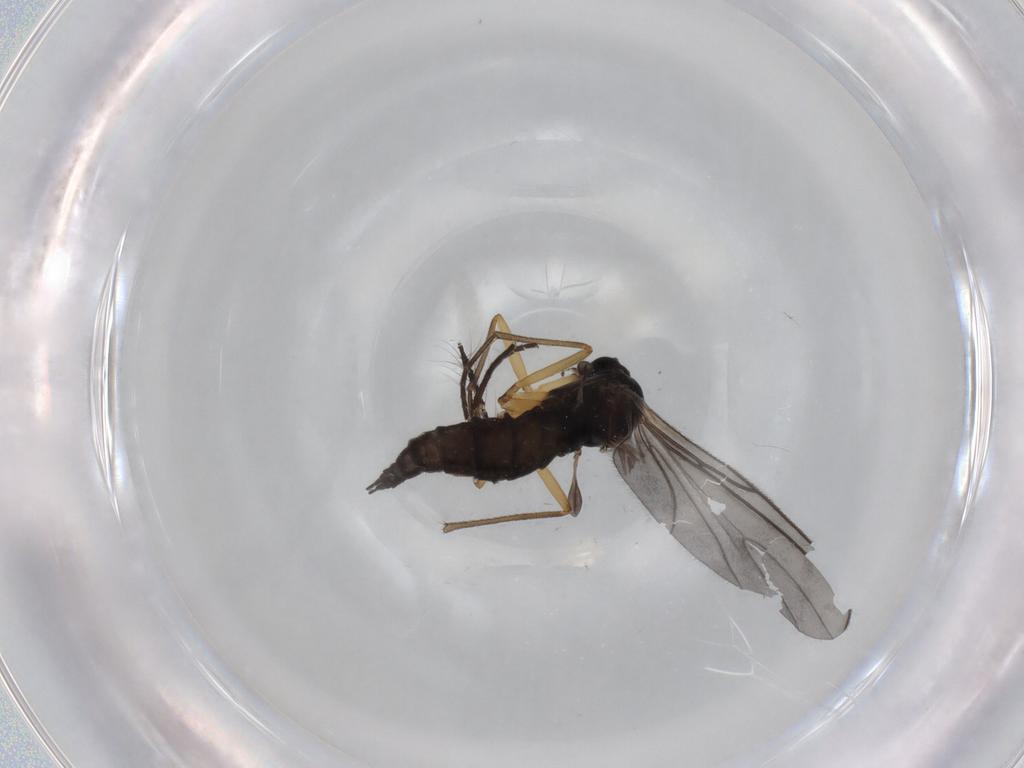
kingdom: Animalia
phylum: Arthropoda
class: Insecta
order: Diptera
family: Sciaridae
